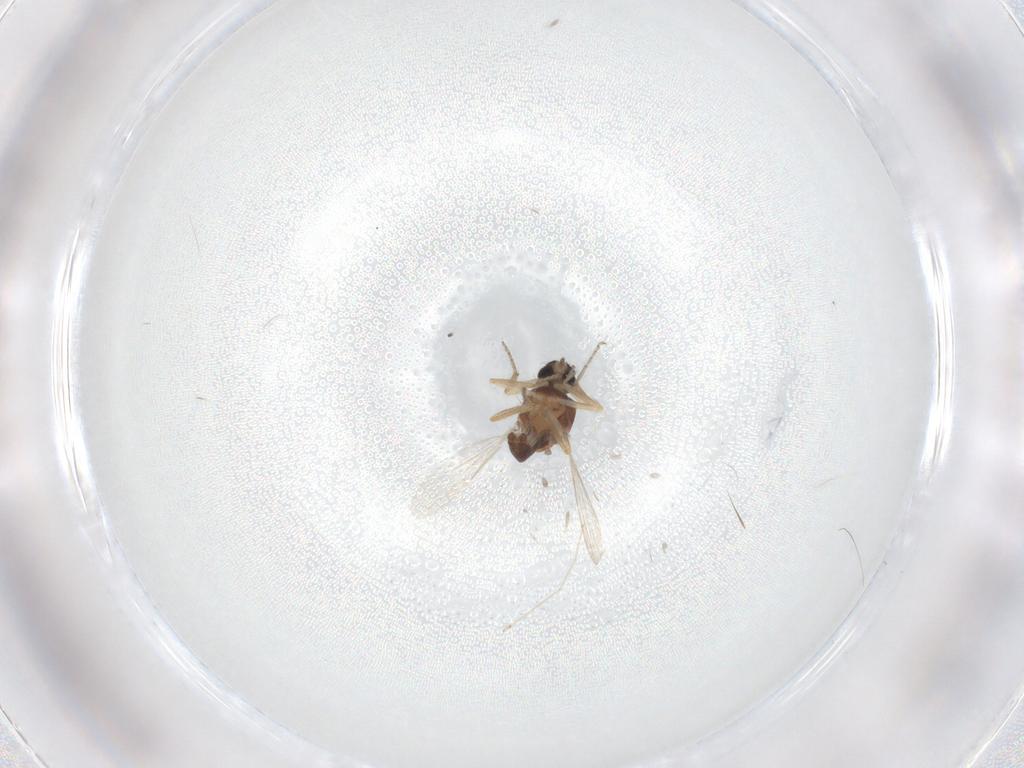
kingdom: Animalia
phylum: Arthropoda
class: Insecta
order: Diptera
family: Ceratopogonidae
